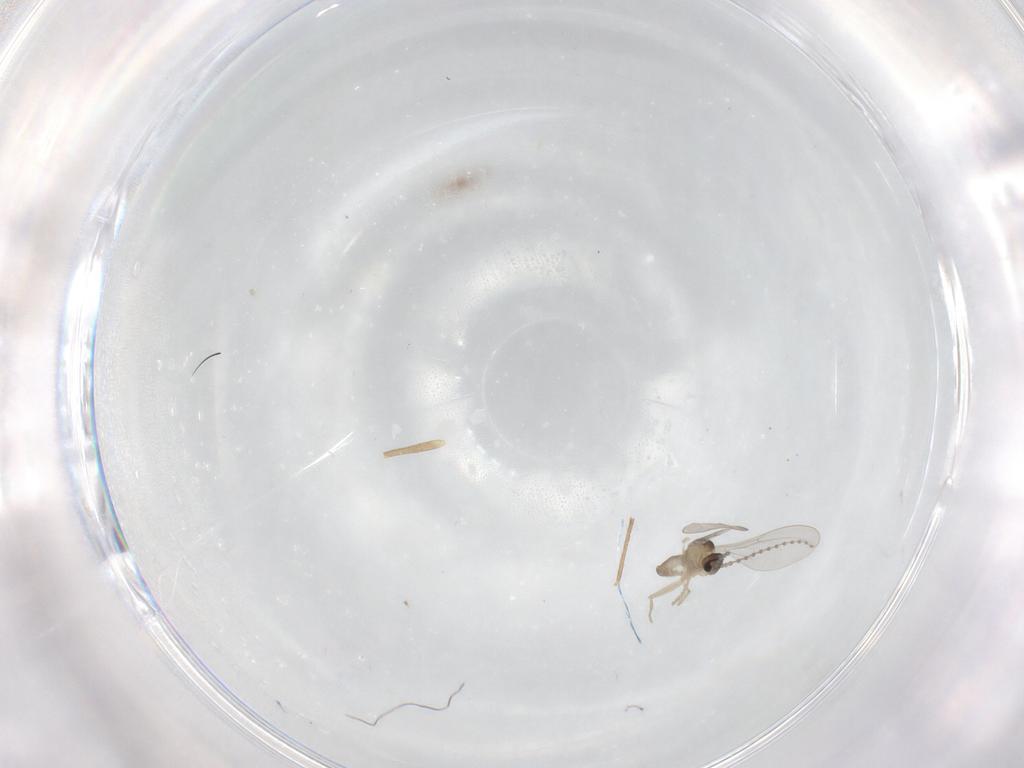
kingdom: Animalia
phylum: Arthropoda
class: Insecta
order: Diptera
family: Cecidomyiidae
